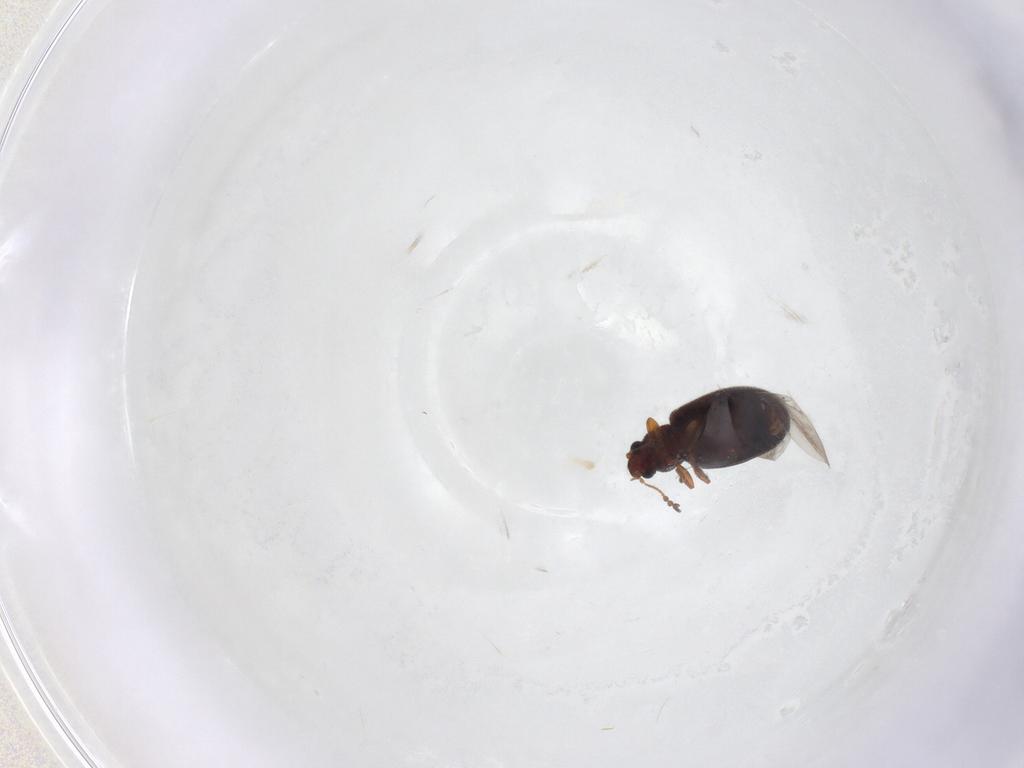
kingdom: Animalia
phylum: Arthropoda
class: Insecta
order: Coleoptera
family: Latridiidae
